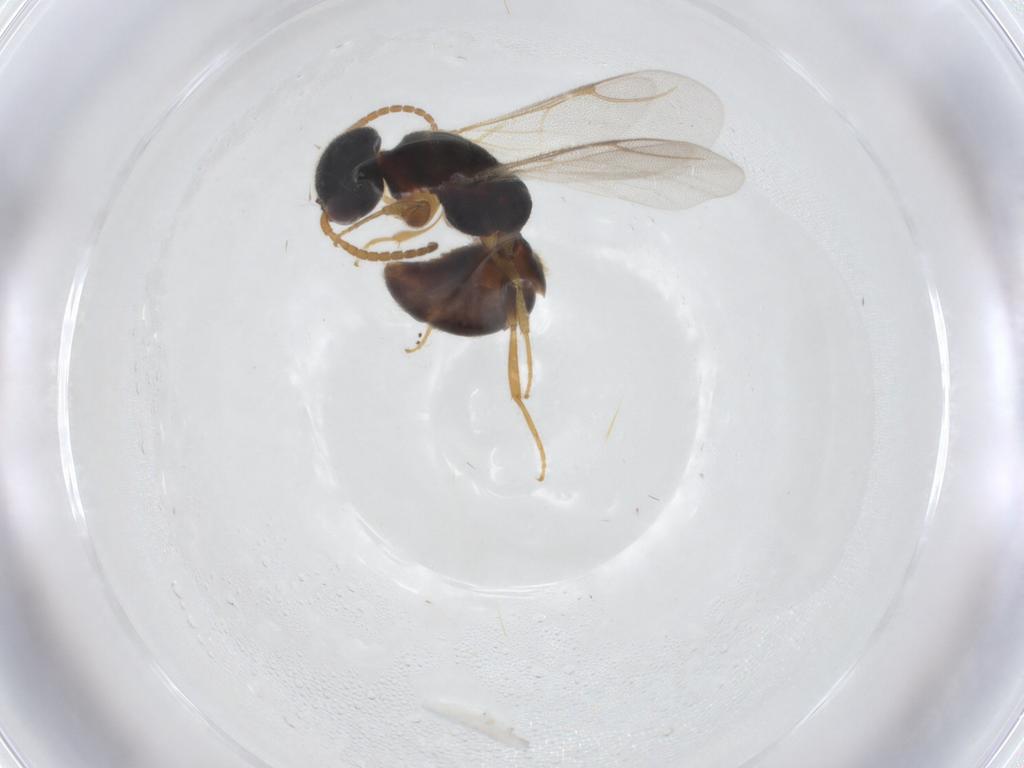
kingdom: Animalia
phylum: Arthropoda
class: Insecta
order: Hymenoptera
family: Bethylidae
